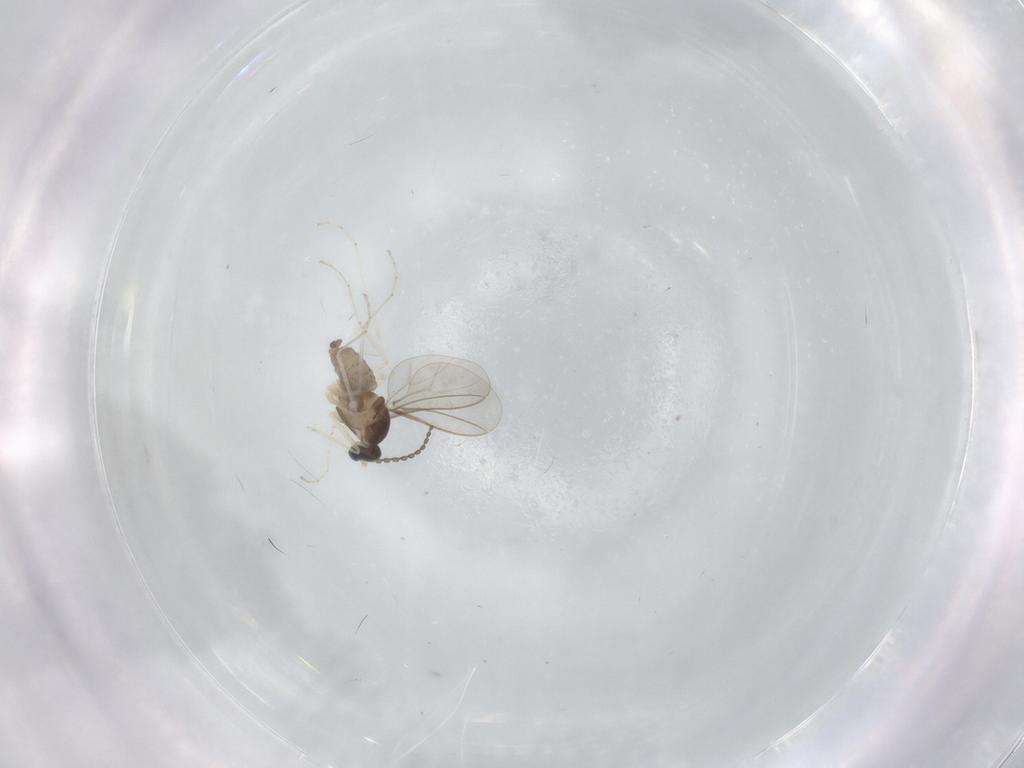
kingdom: Animalia
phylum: Arthropoda
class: Insecta
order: Diptera
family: Cecidomyiidae
